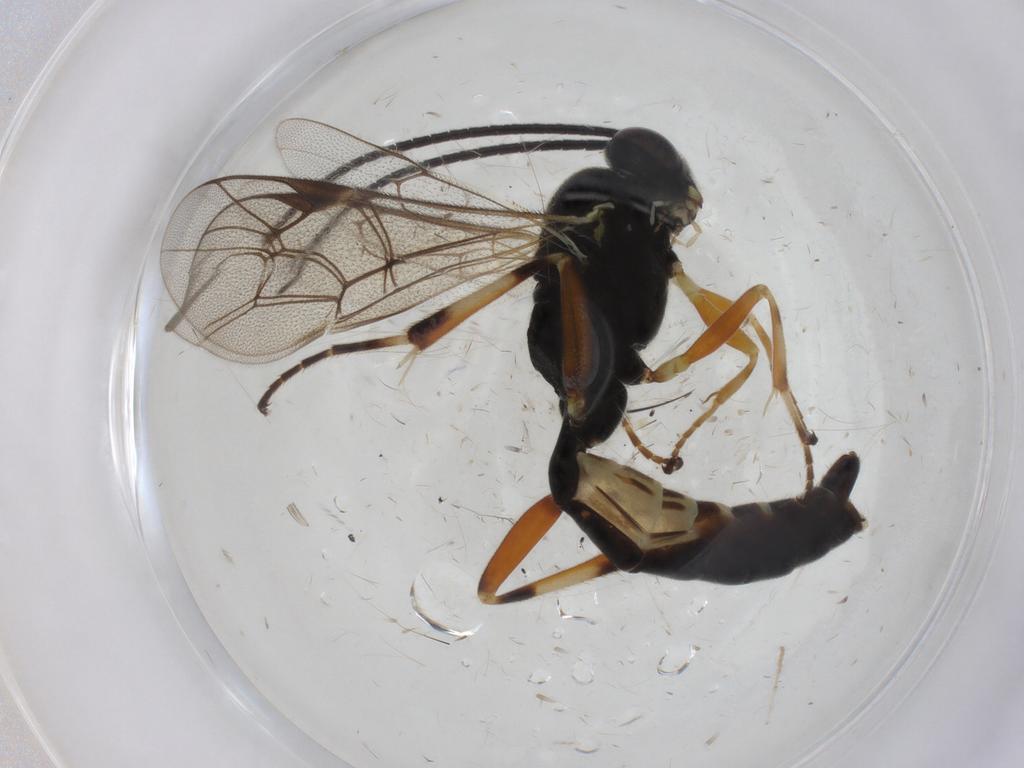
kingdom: Animalia
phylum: Arthropoda
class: Insecta
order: Hymenoptera
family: Ichneumonidae
